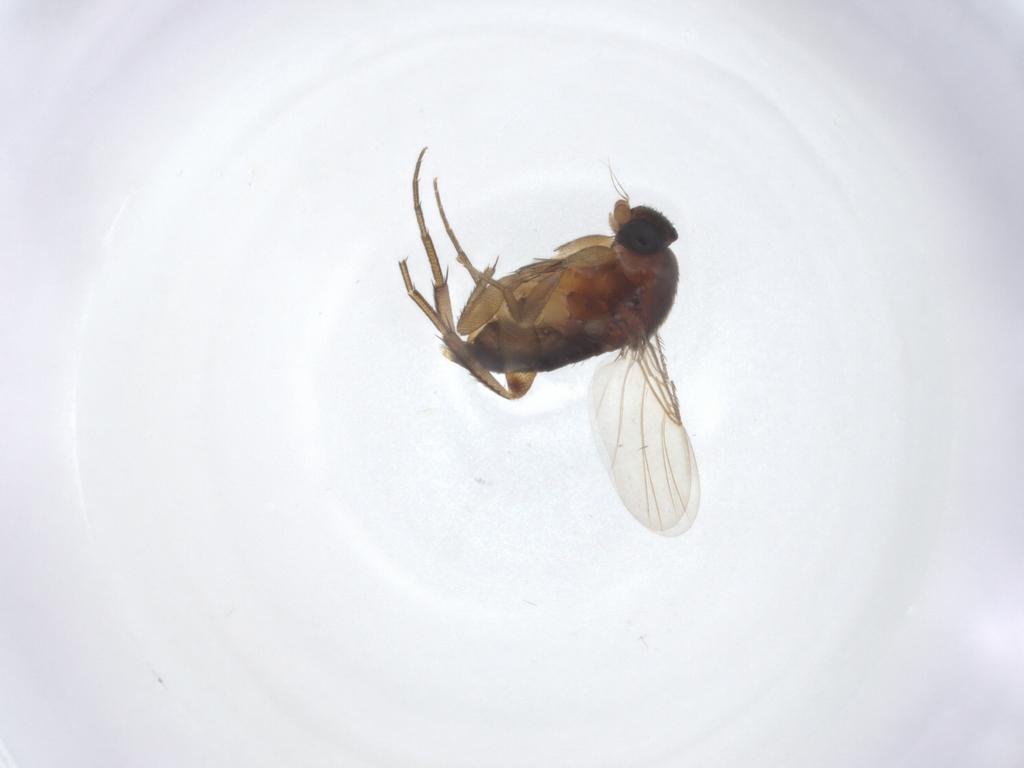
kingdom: Animalia
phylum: Arthropoda
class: Insecta
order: Diptera
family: Phoridae
